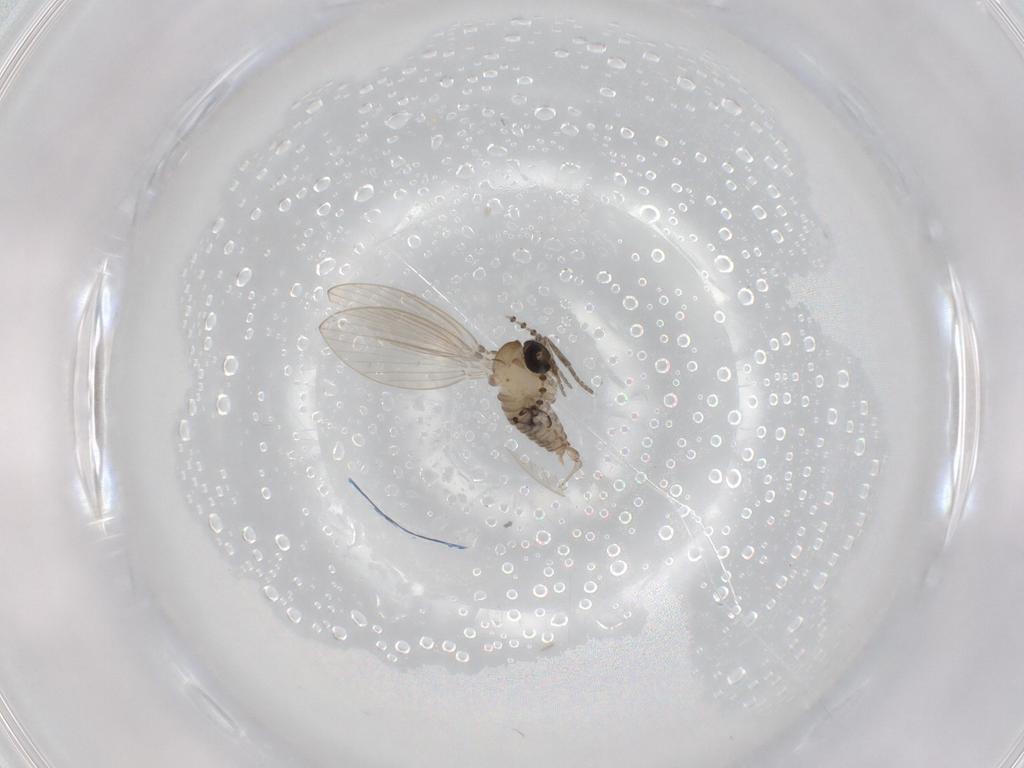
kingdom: Animalia
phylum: Arthropoda
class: Insecta
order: Diptera
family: Psychodidae
